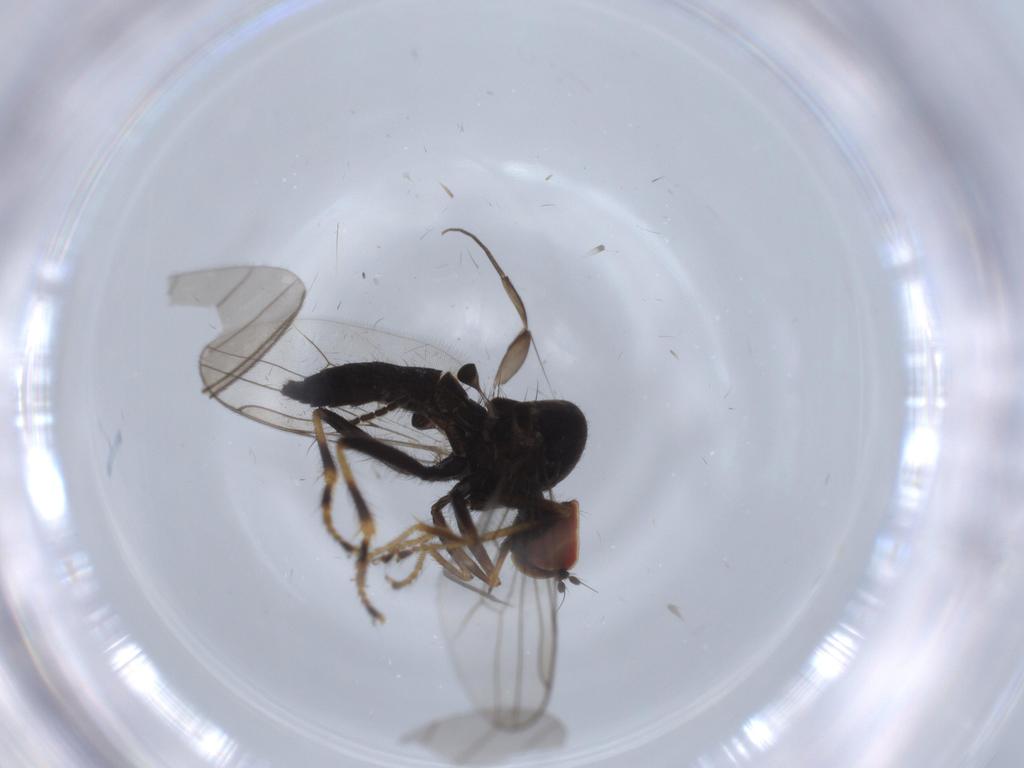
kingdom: Animalia
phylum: Arthropoda
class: Insecta
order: Diptera
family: Hybotidae
